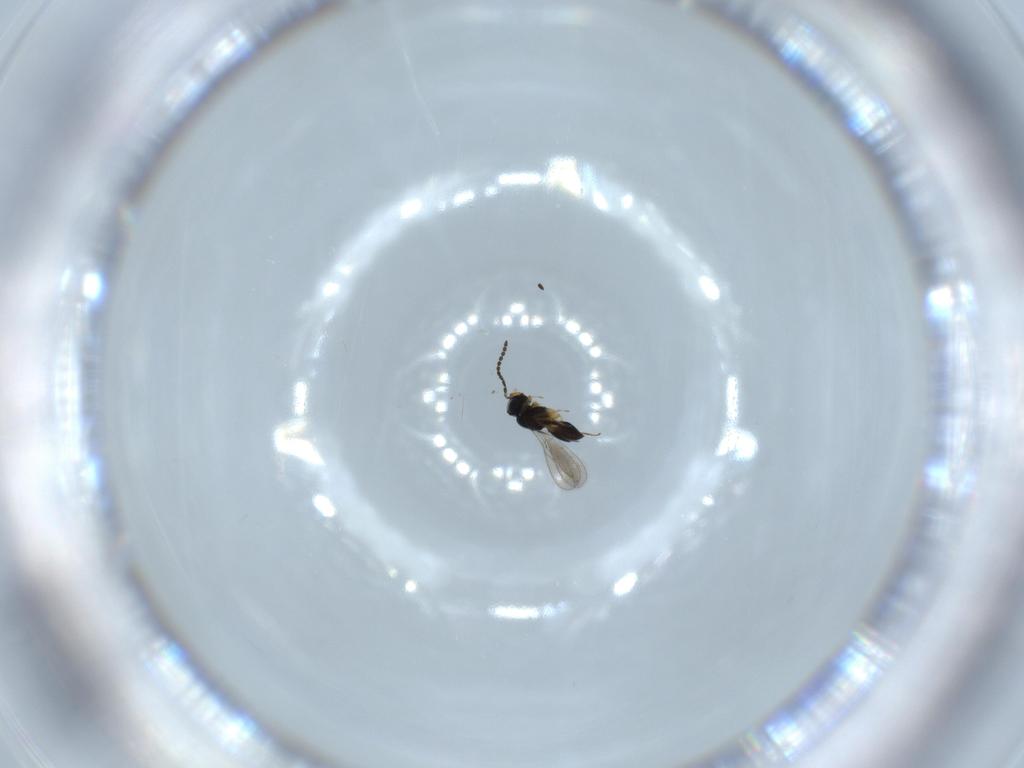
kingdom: Animalia
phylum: Arthropoda
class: Insecta
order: Hymenoptera
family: Scelionidae
